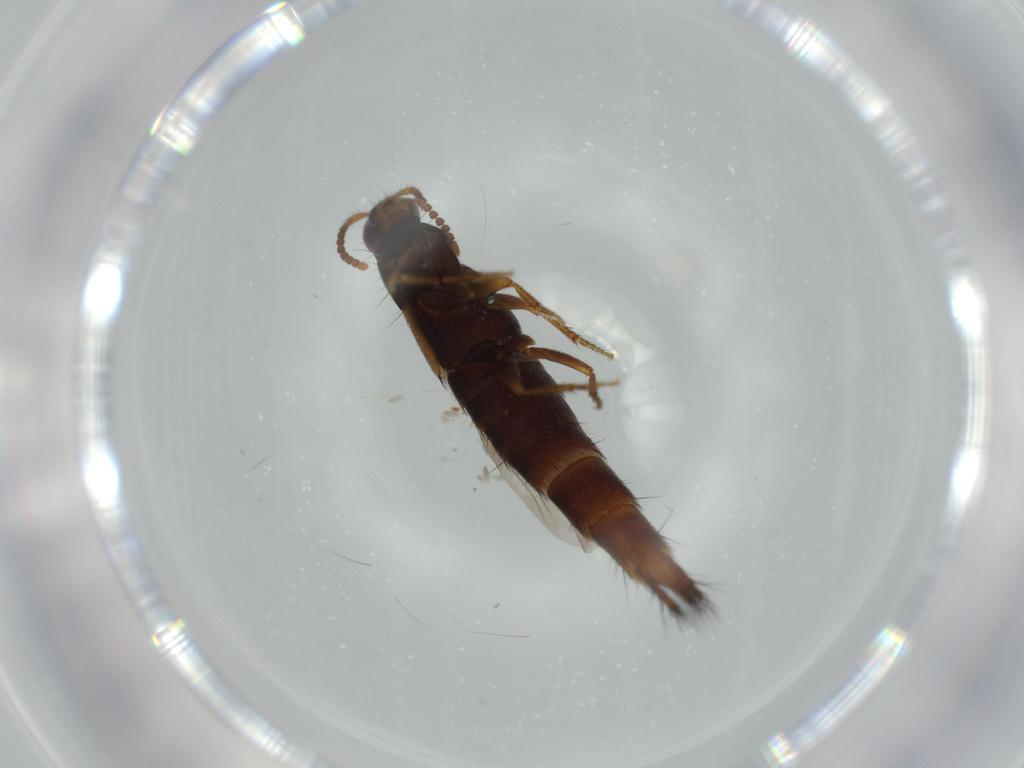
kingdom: Animalia
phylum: Arthropoda
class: Insecta
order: Coleoptera
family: Staphylinidae
